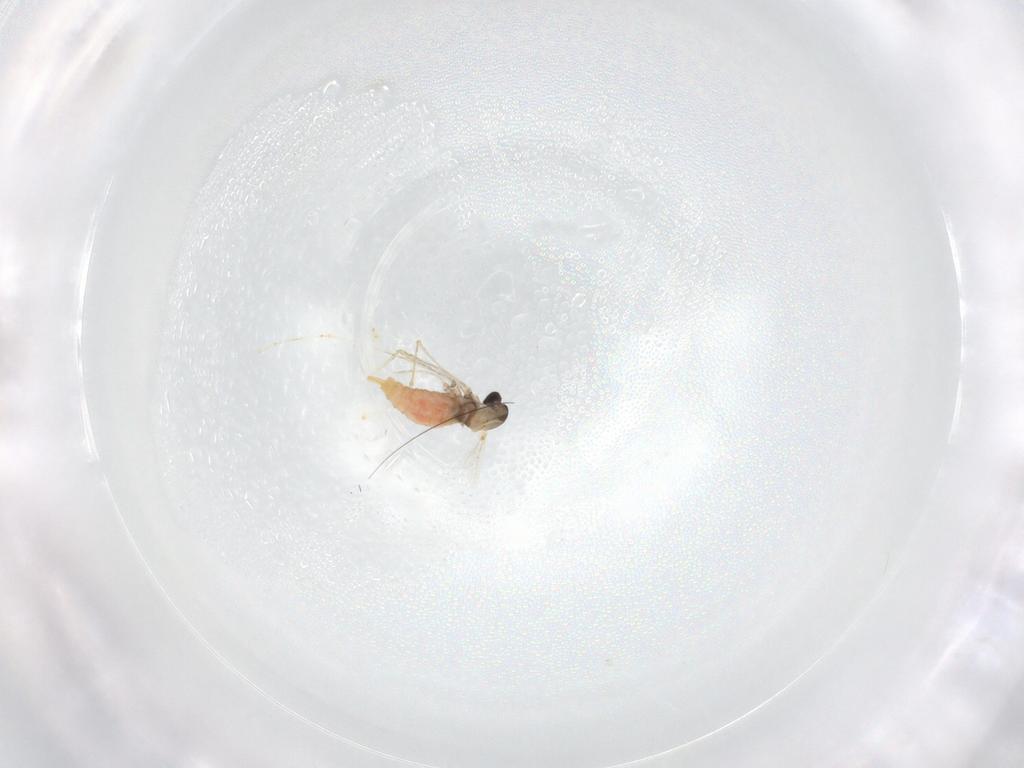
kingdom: Animalia
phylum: Arthropoda
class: Insecta
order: Diptera
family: Cecidomyiidae
